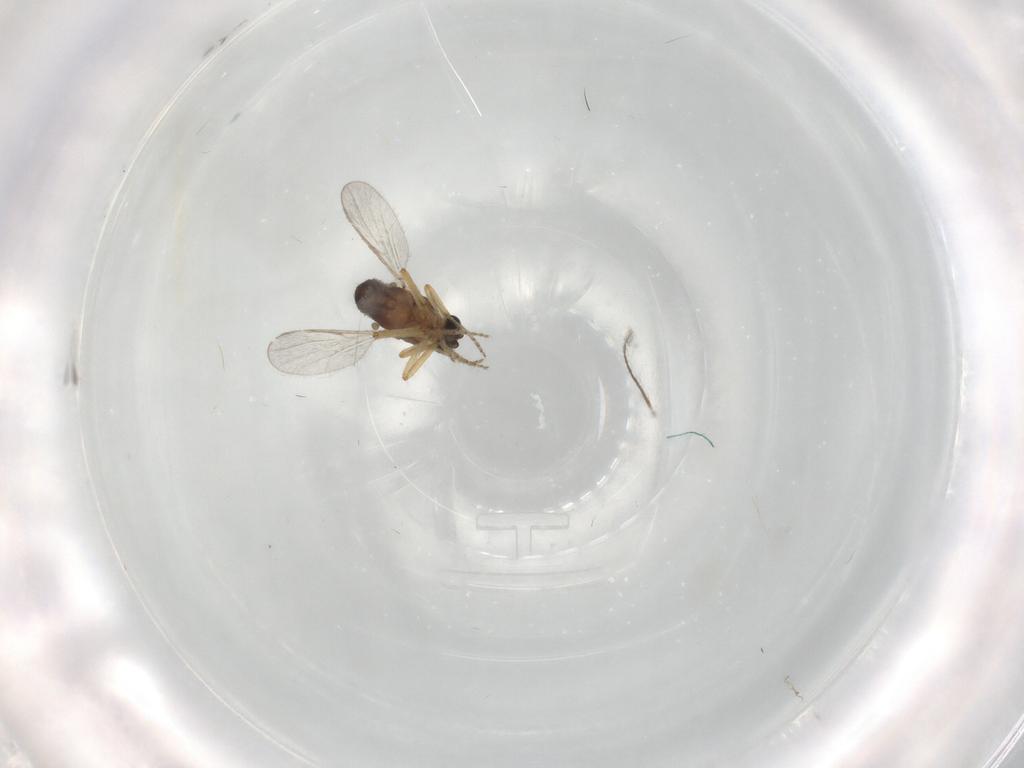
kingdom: Animalia
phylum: Arthropoda
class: Insecta
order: Diptera
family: Ceratopogonidae
